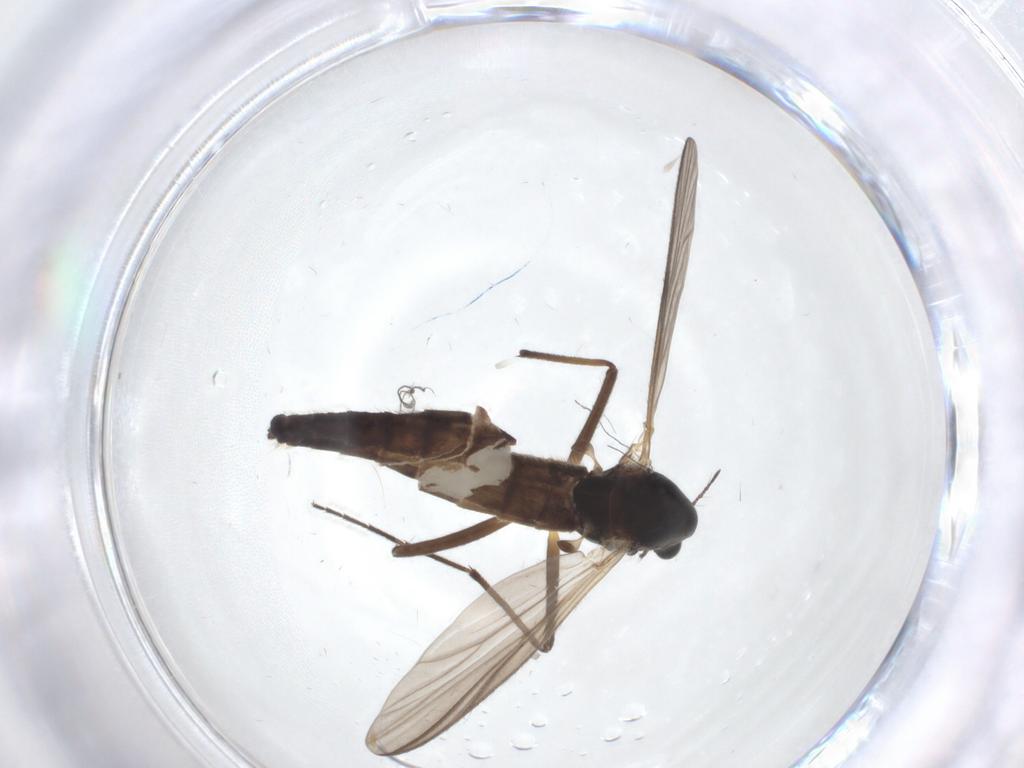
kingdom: Animalia
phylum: Arthropoda
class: Insecta
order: Diptera
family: Chironomidae
